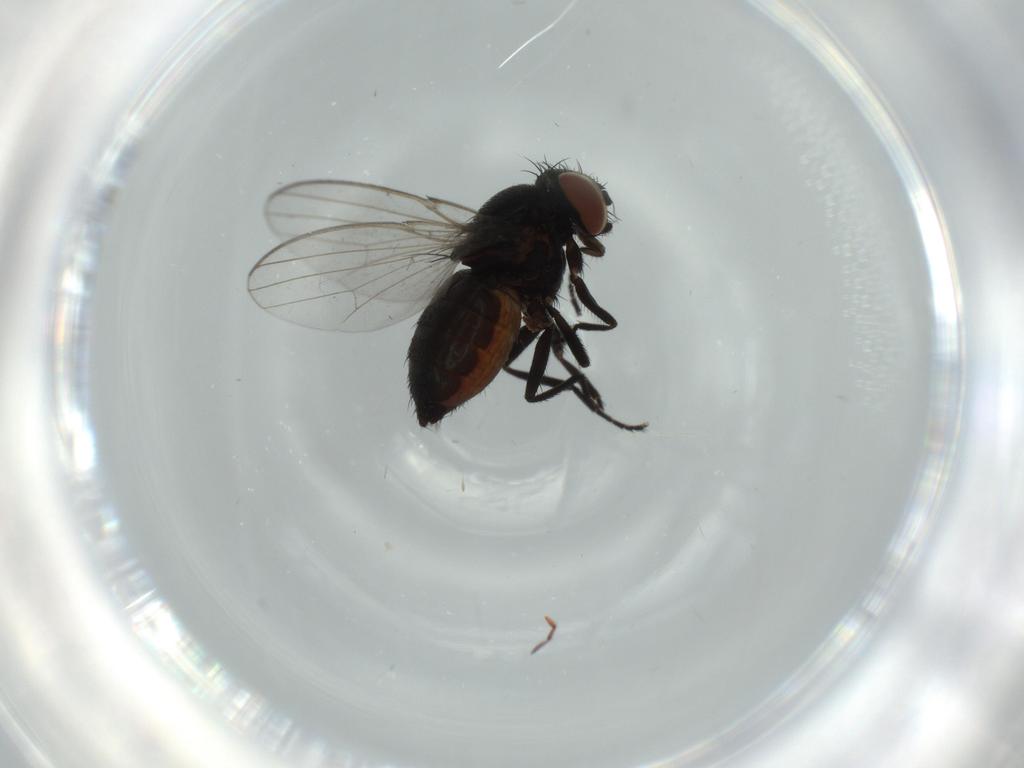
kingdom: Animalia
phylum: Arthropoda
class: Insecta
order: Diptera
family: Milichiidae
